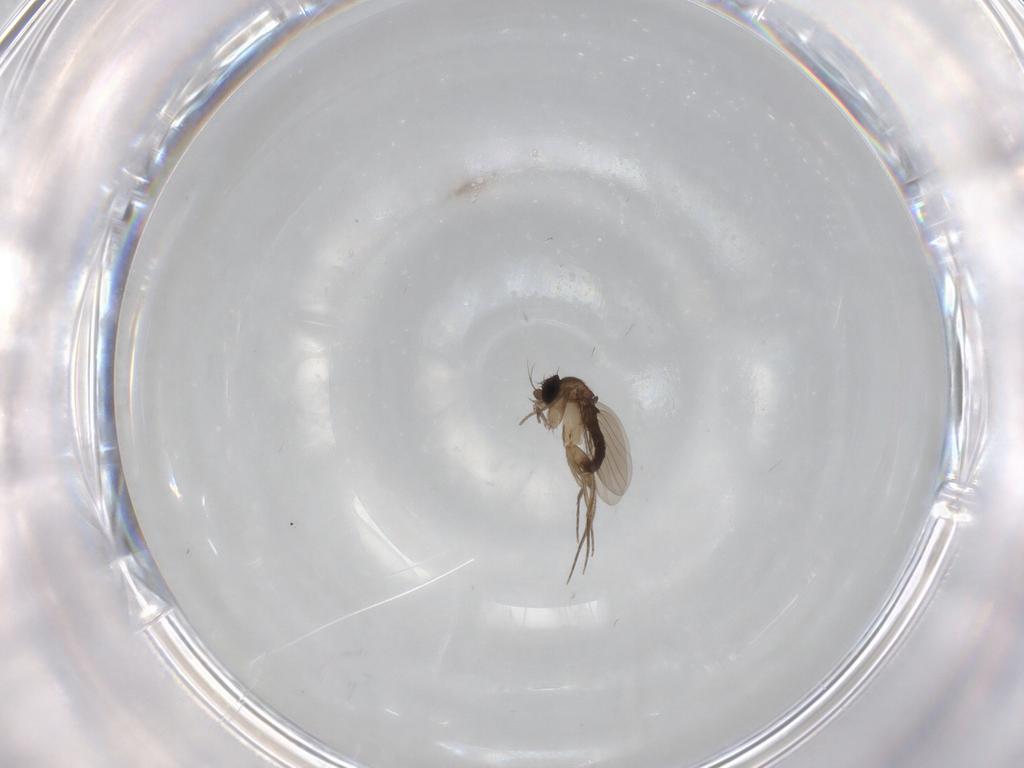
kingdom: Animalia
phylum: Arthropoda
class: Insecta
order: Diptera
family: Phoridae
